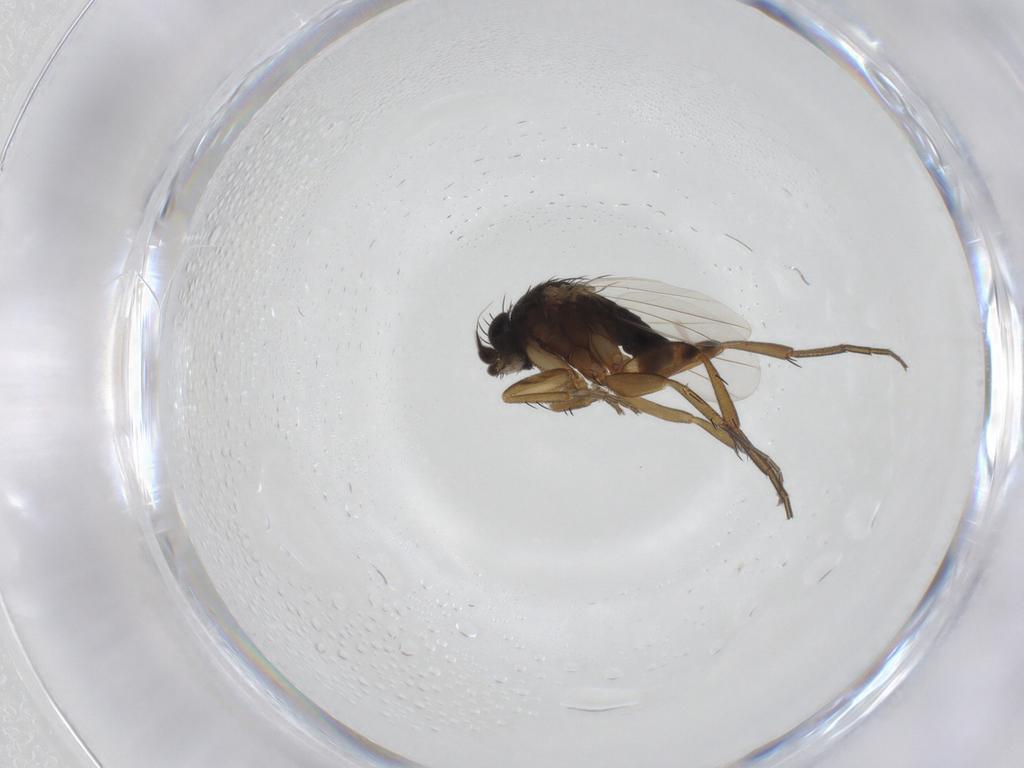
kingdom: Animalia
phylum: Arthropoda
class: Insecta
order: Diptera
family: Phoridae
